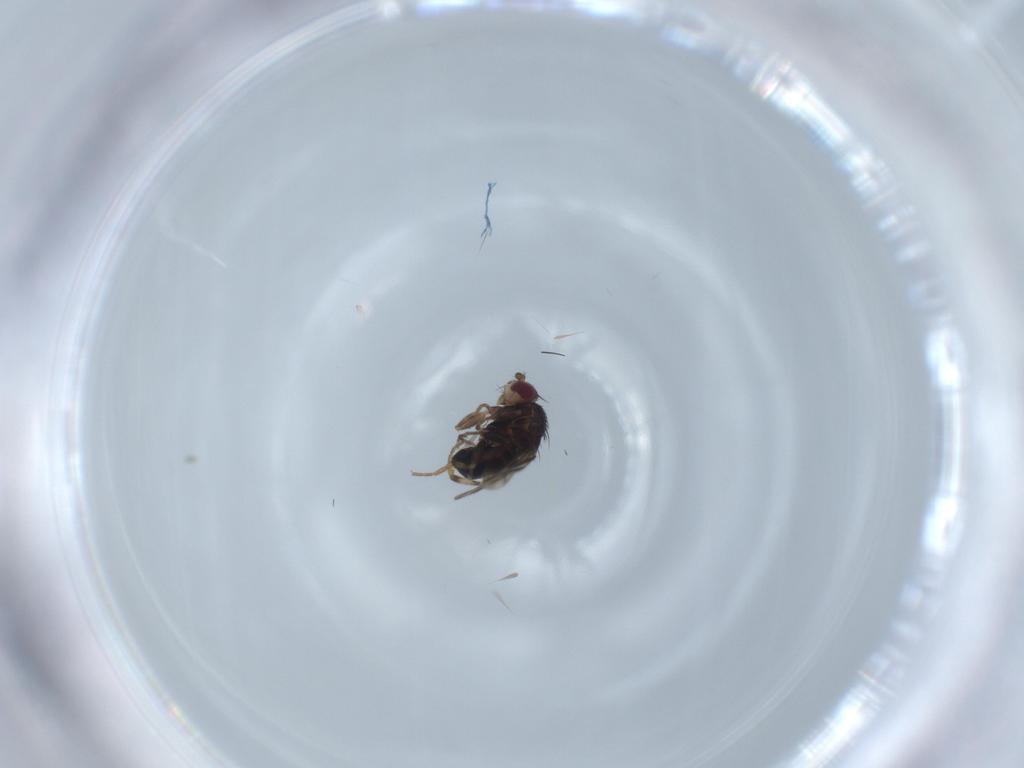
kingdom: Animalia
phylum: Arthropoda
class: Insecta
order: Diptera
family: Sphaeroceridae
